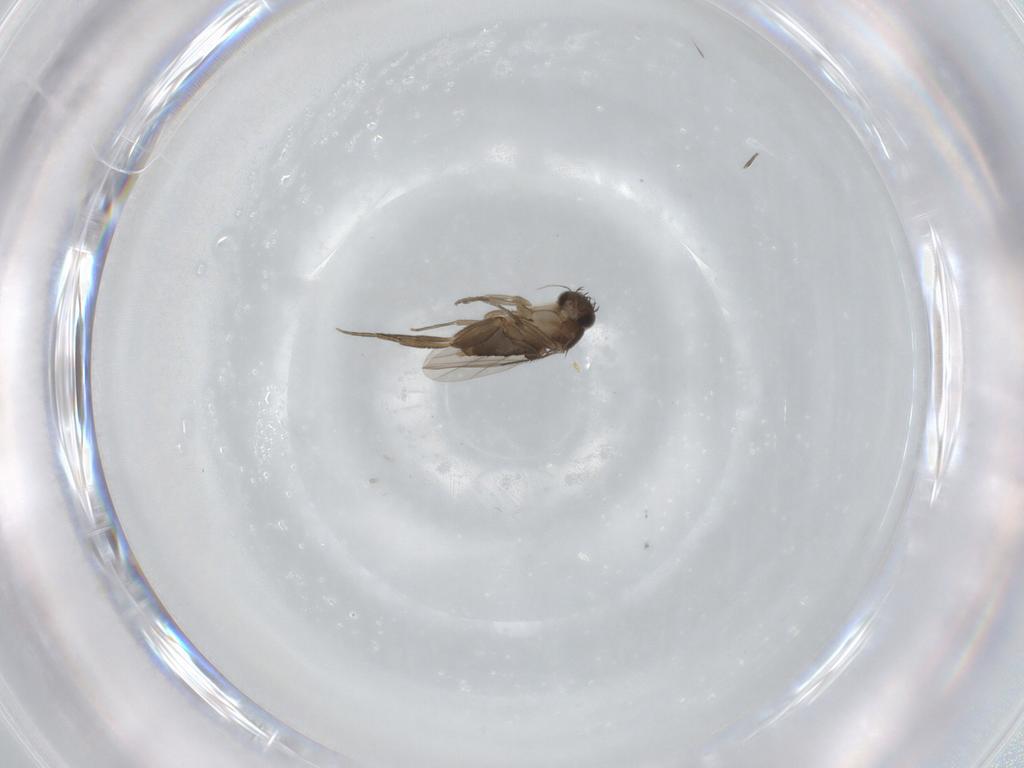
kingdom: Animalia
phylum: Arthropoda
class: Insecta
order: Diptera
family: Phoridae
